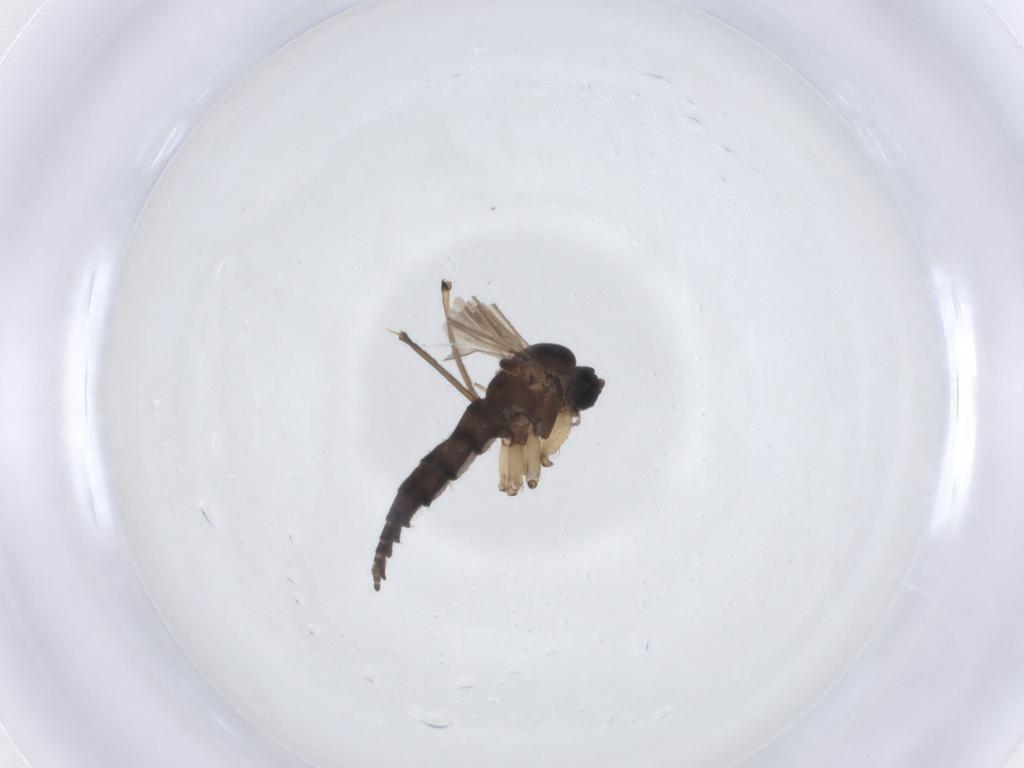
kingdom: Animalia
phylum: Arthropoda
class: Insecta
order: Diptera
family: Sciaridae
